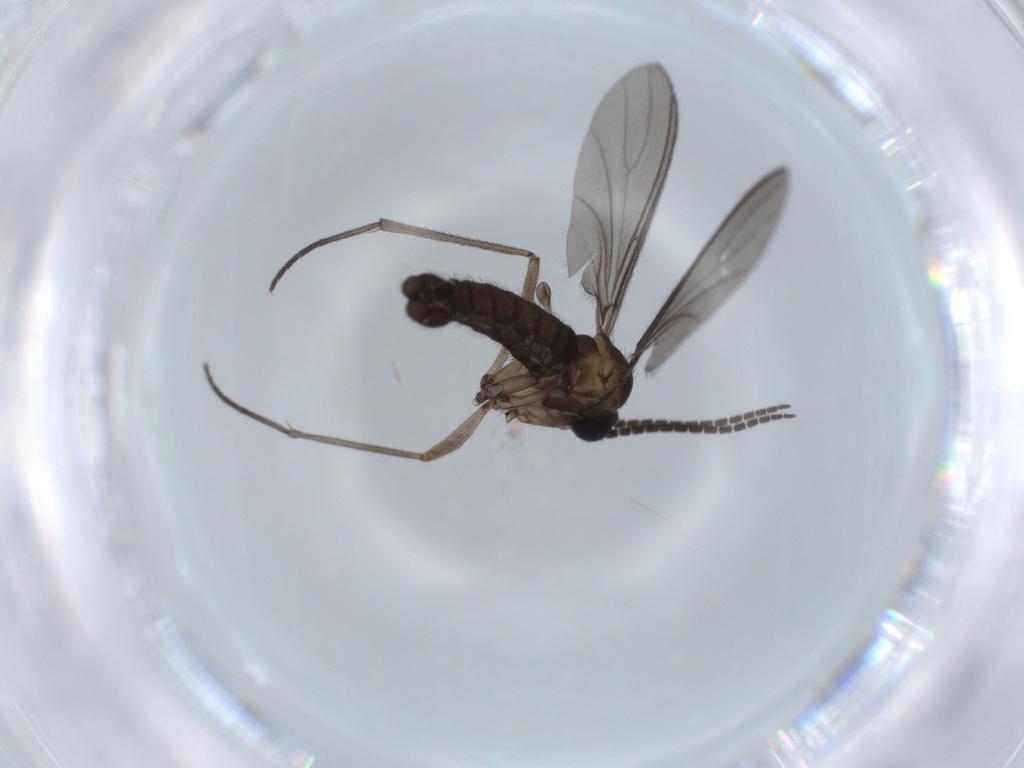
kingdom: Animalia
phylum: Arthropoda
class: Insecta
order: Diptera
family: Sciaridae
